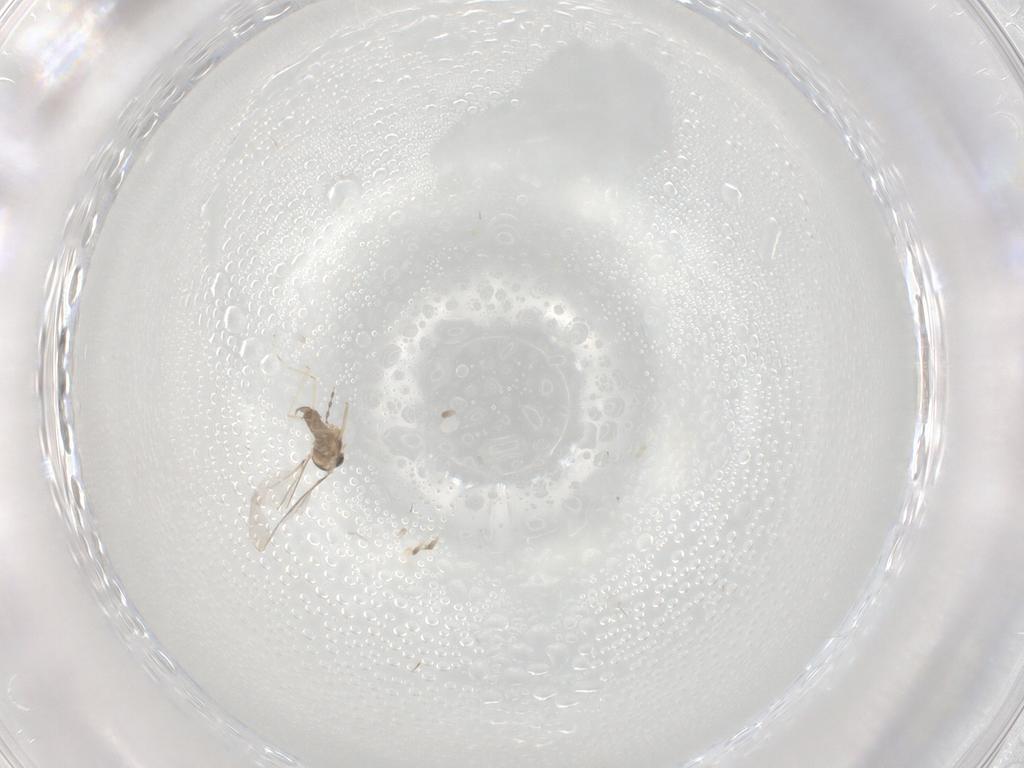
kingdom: Animalia
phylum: Arthropoda
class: Insecta
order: Diptera
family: Cecidomyiidae
